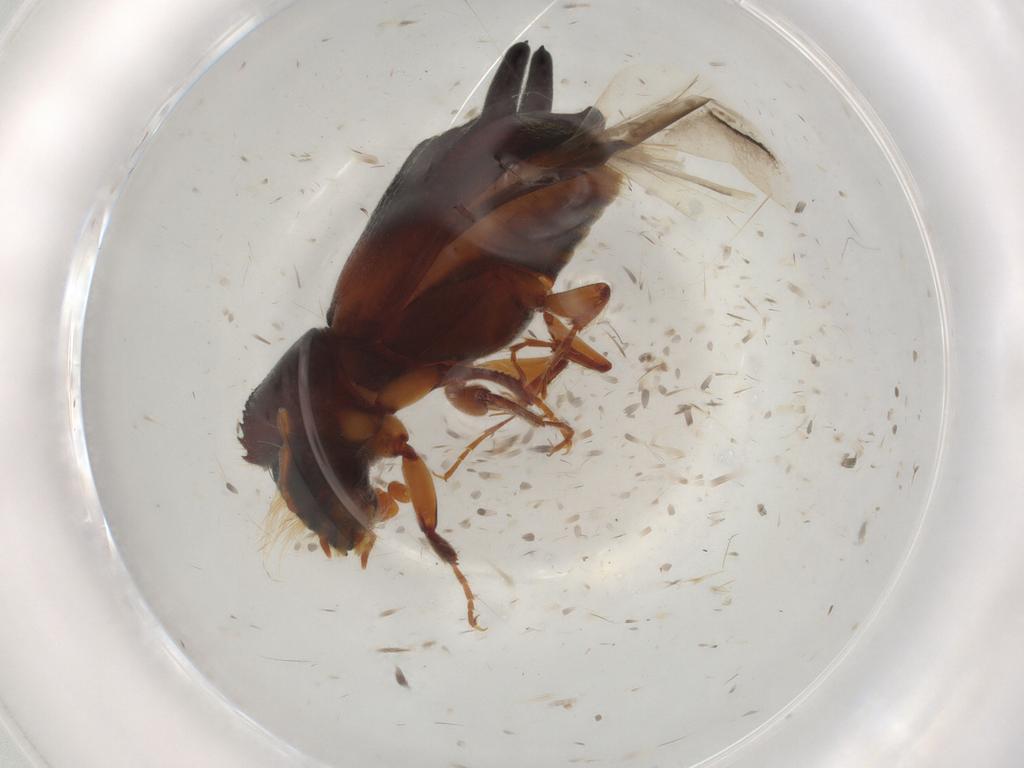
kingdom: Animalia
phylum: Arthropoda
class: Insecta
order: Coleoptera
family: Bostrichidae
